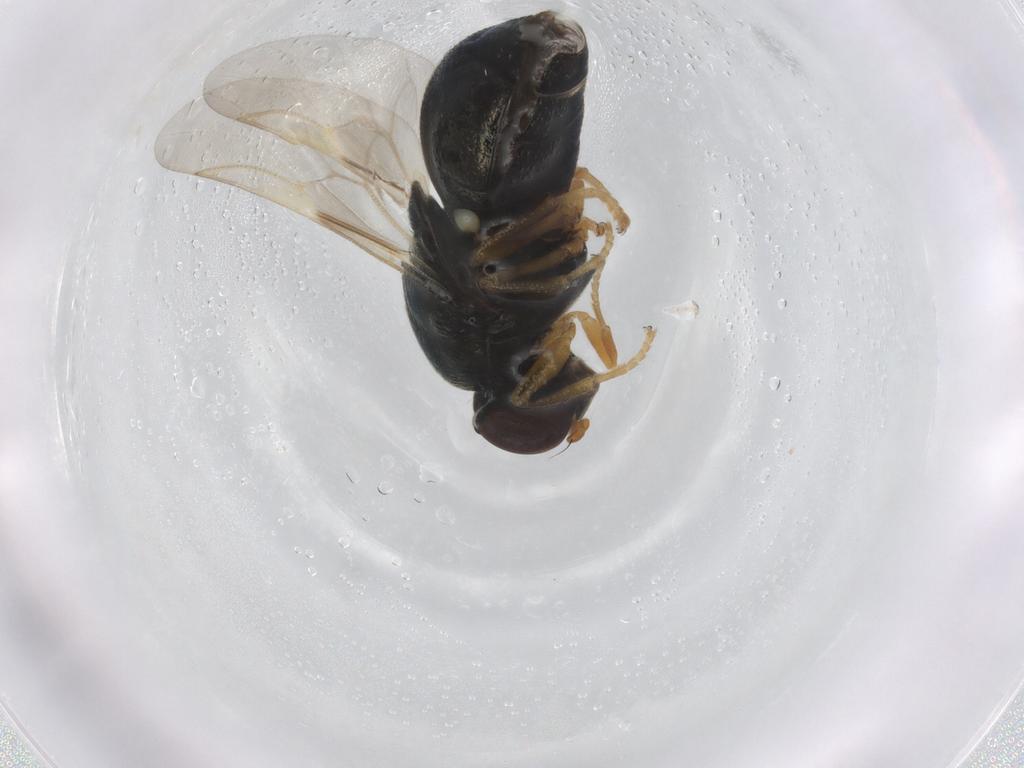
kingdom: Animalia
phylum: Arthropoda
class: Insecta
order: Diptera
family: Stratiomyidae
